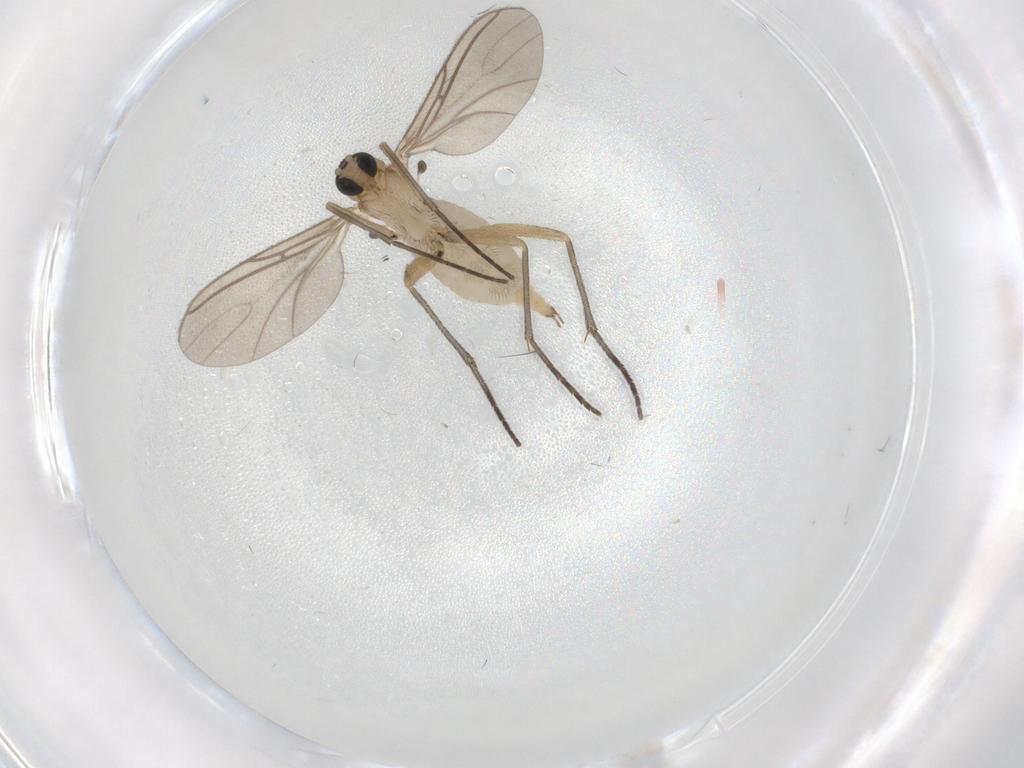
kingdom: Animalia
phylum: Arthropoda
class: Insecta
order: Diptera
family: Sciaridae
